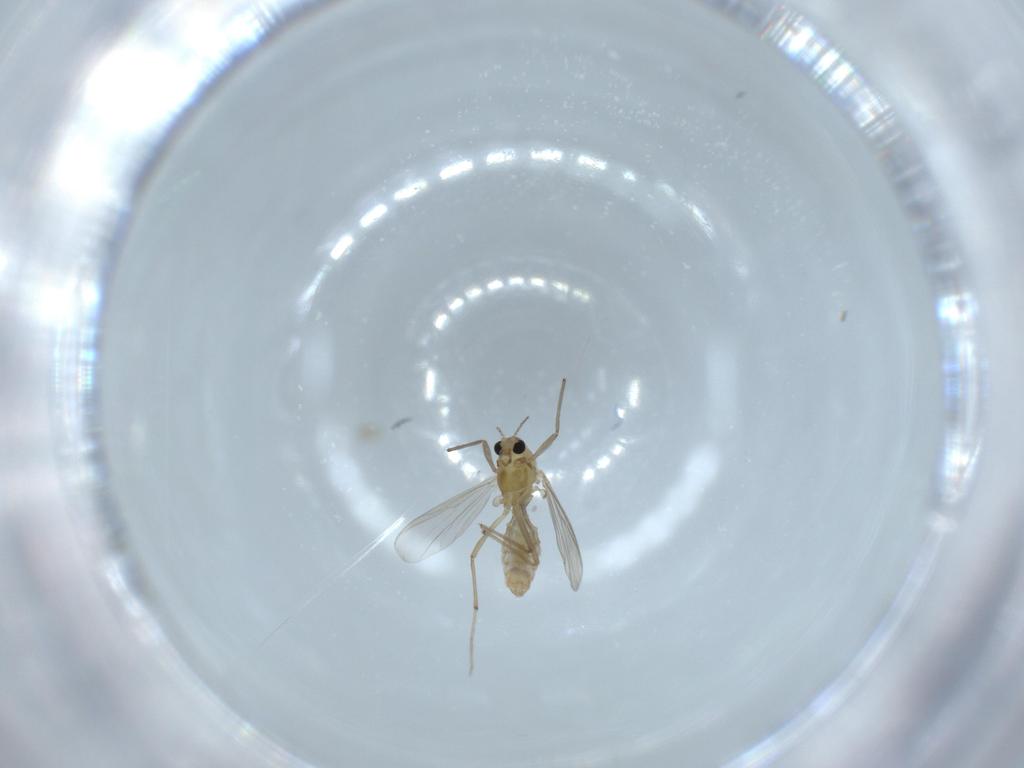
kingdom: Animalia
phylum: Arthropoda
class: Insecta
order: Diptera
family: Chironomidae
